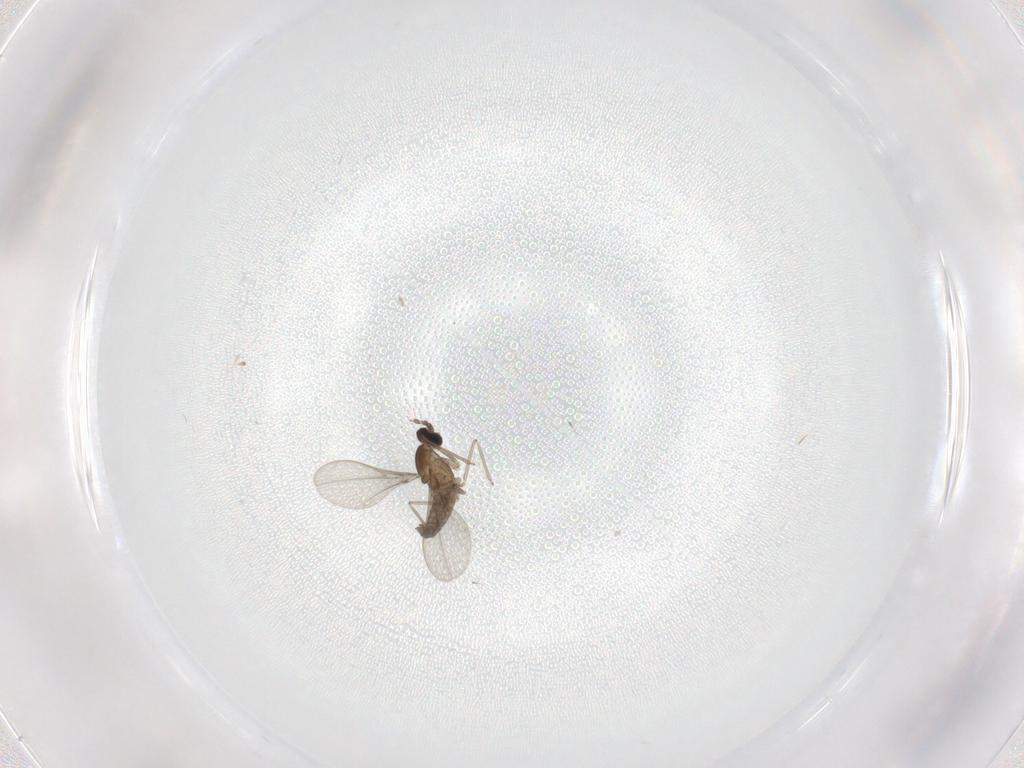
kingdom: Animalia
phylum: Arthropoda
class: Insecta
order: Diptera
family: Cecidomyiidae
